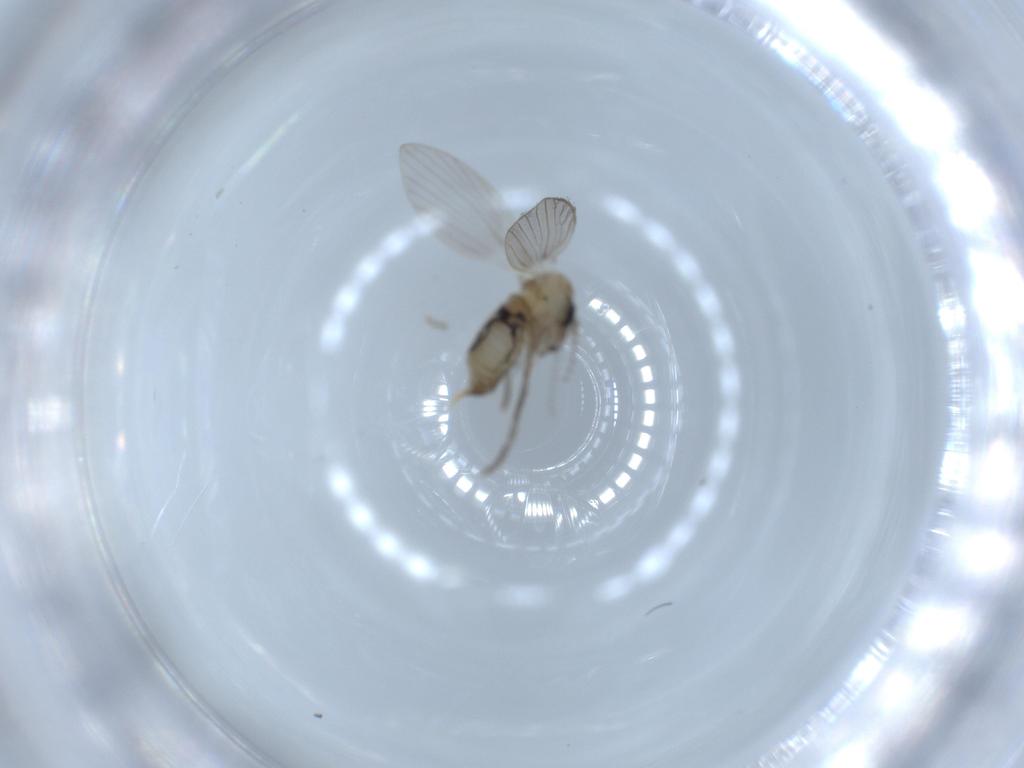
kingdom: Animalia
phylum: Arthropoda
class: Insecta
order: Diptera
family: Psychodidae
